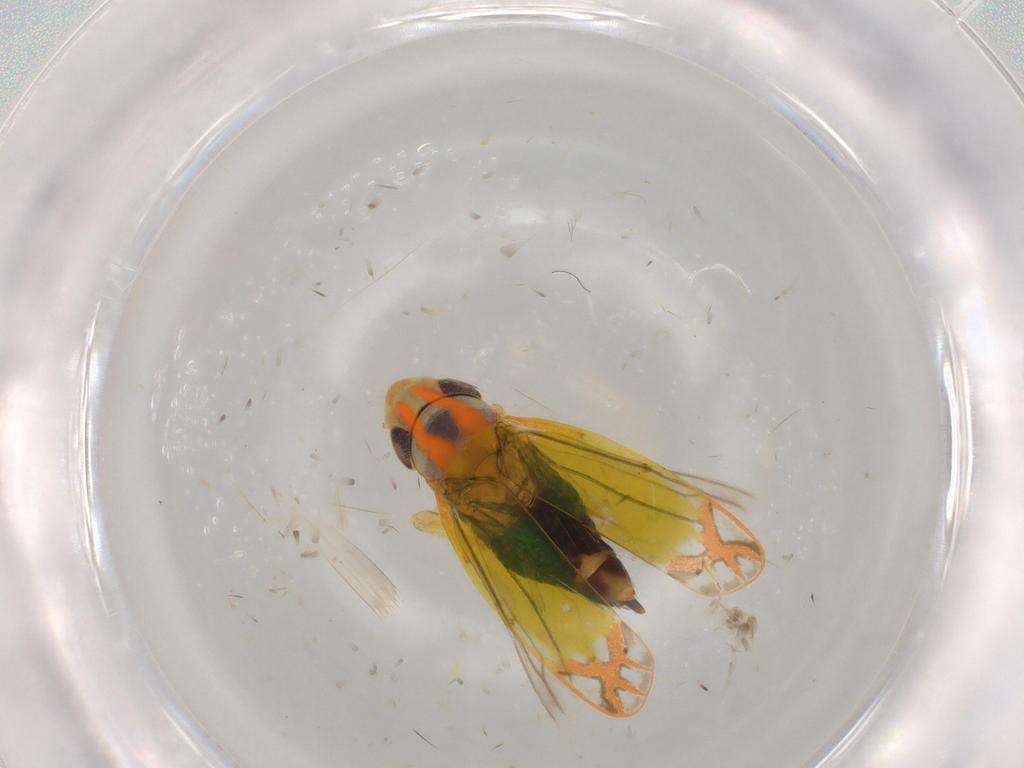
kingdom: Animalia
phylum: Arthropoda
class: Insecta
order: Hemiptera
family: Cicadellidae
